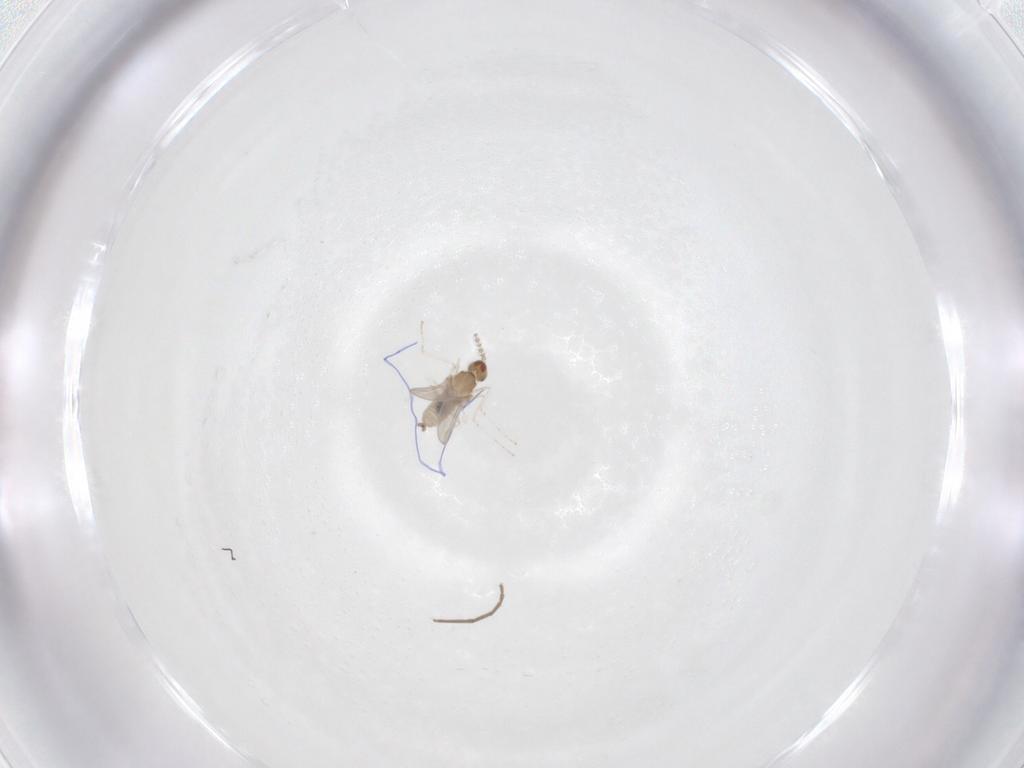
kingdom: Animalia
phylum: Arthropoda
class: Insecta
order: Diptera
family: Cecidomyiidae
